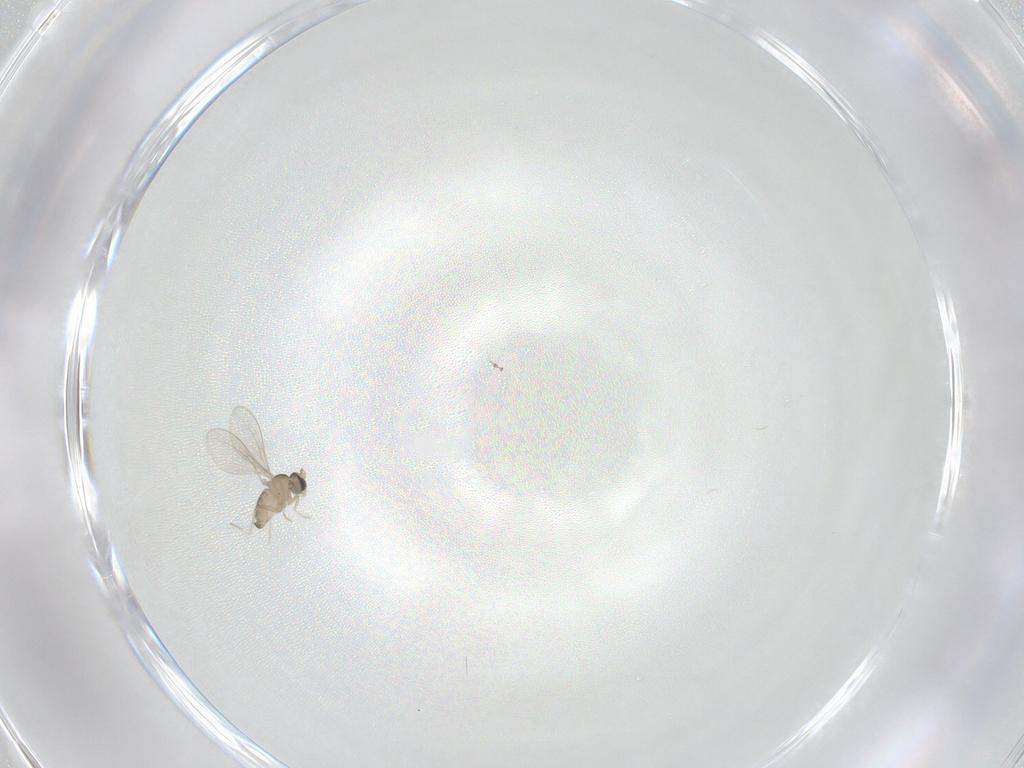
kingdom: Animalia
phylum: Arthropoda
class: Insecta
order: Diptera
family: Cecidomyiidae
